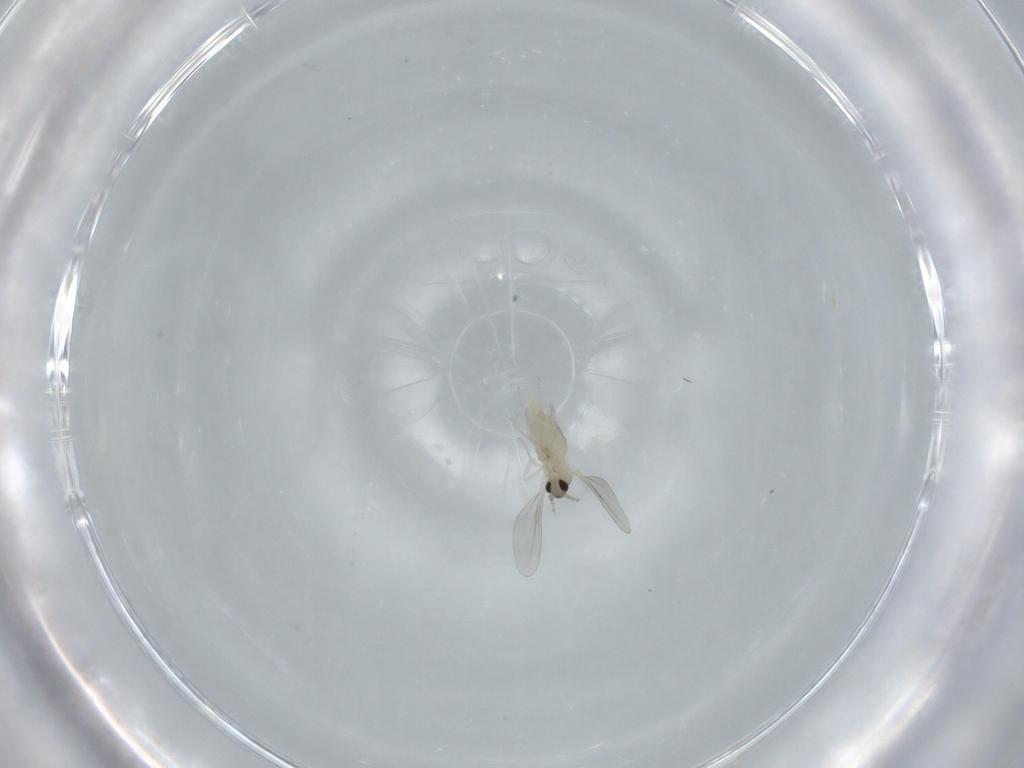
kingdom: Animalia
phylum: Arthropoda
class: Insecta
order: Diptera
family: Cecidomyiidae
